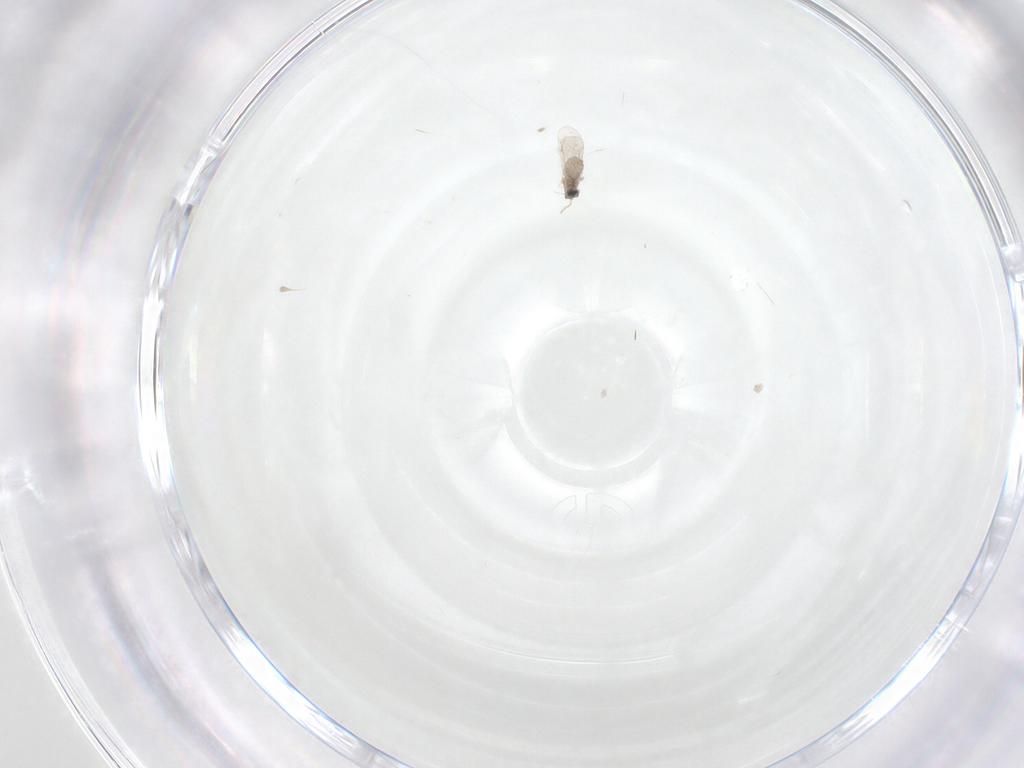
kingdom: Animalia
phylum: Arthropoda
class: Insecta
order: Diptera
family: Cecidomyiidae
